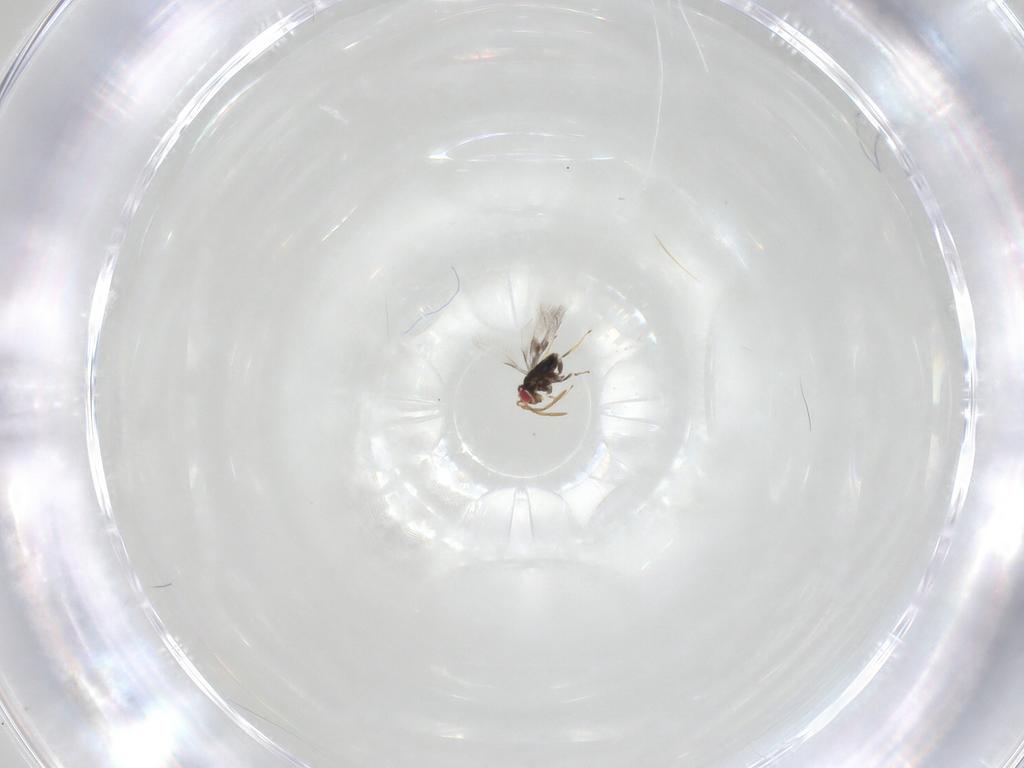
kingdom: Animalia
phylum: Arthropoda
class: Insecta
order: Hymenoptera
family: Azotidae
